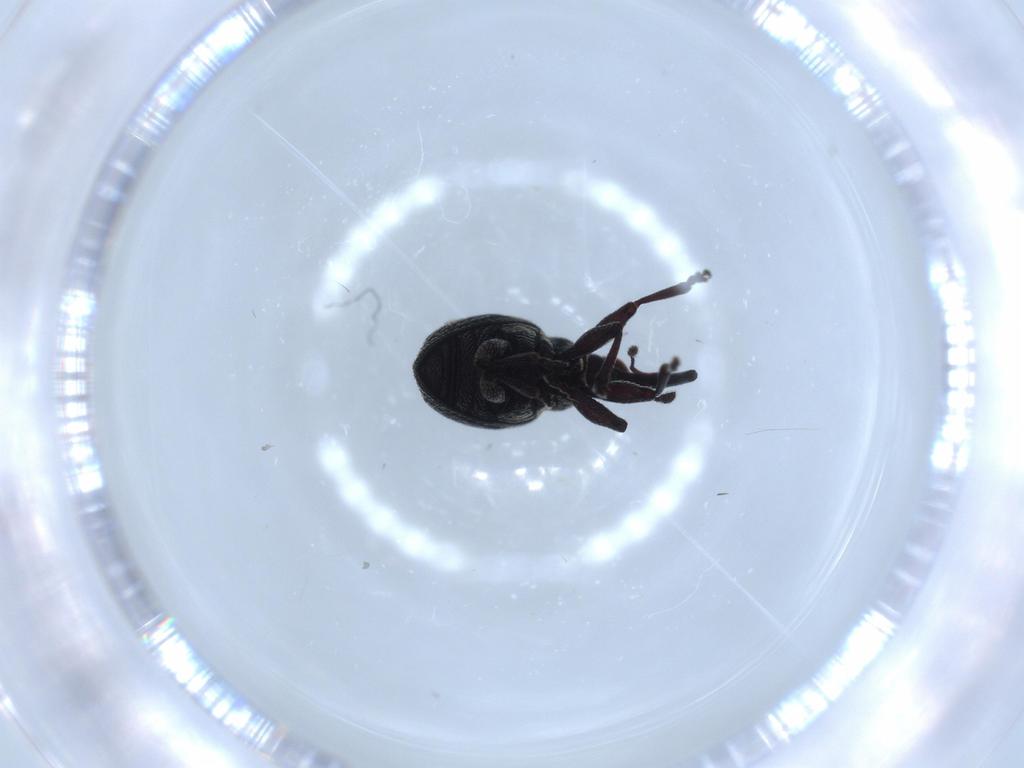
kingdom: Animalia
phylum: Arthropoda
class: Insecta
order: Coleoptera
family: Brentidae
